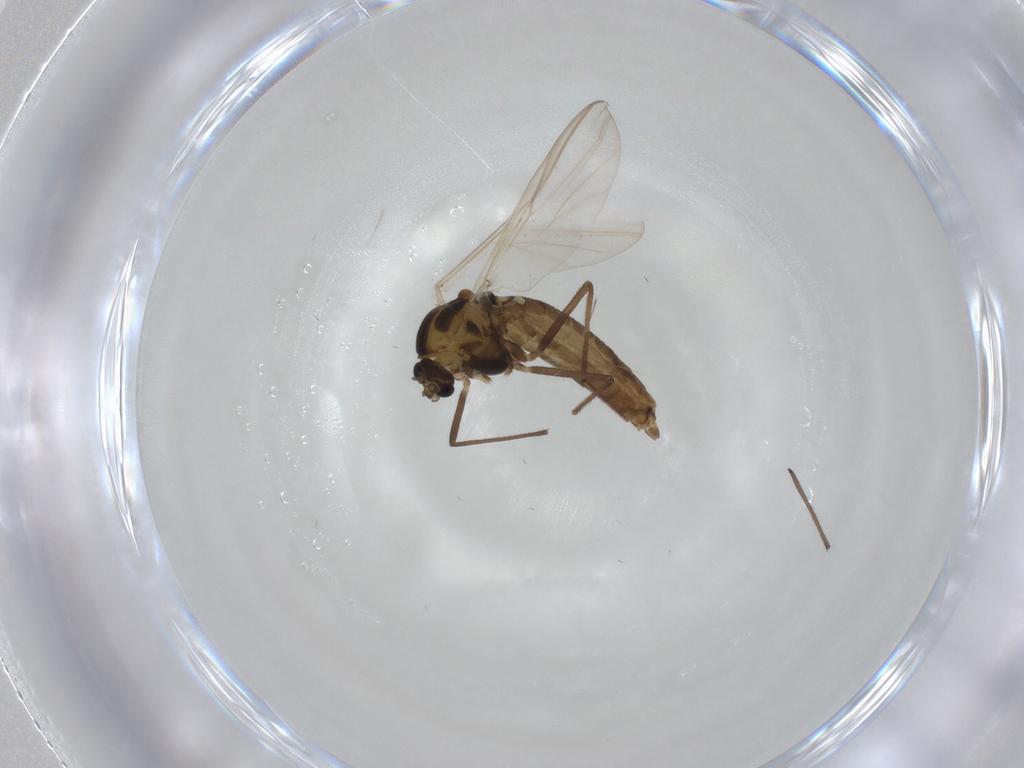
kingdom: Animalia
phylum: Arthropoda
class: Insecta
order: Diptera
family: Chironomidae
